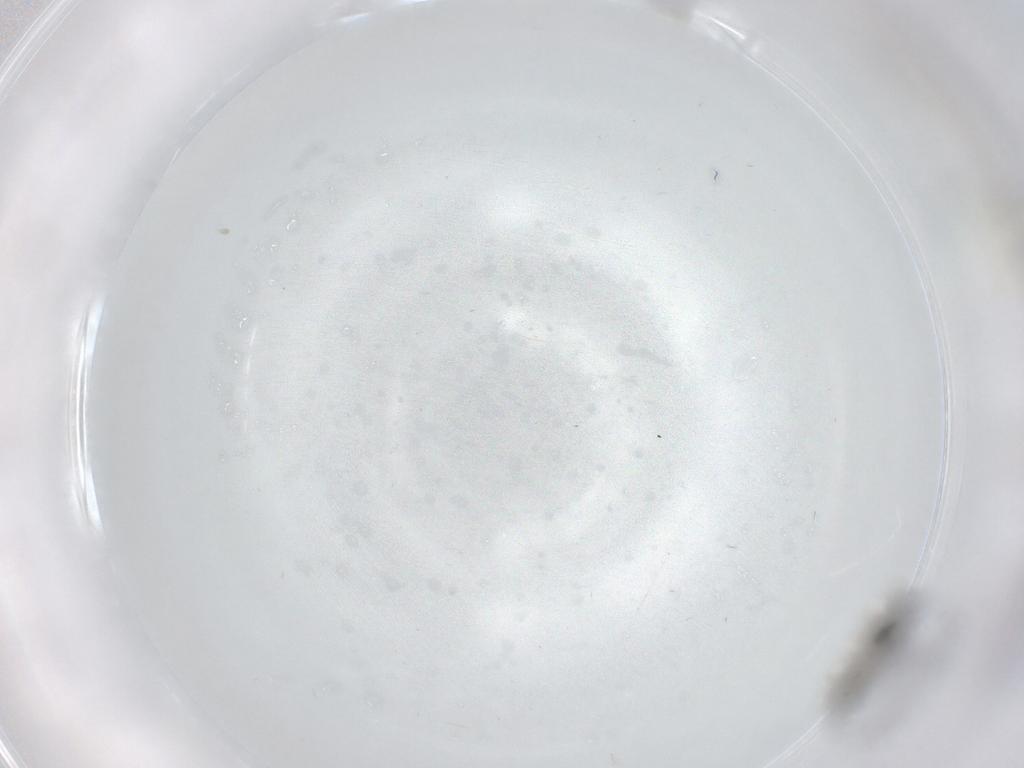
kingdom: Animalia
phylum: Arthropoda
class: Insecta
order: Diptera
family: Sciaridae
